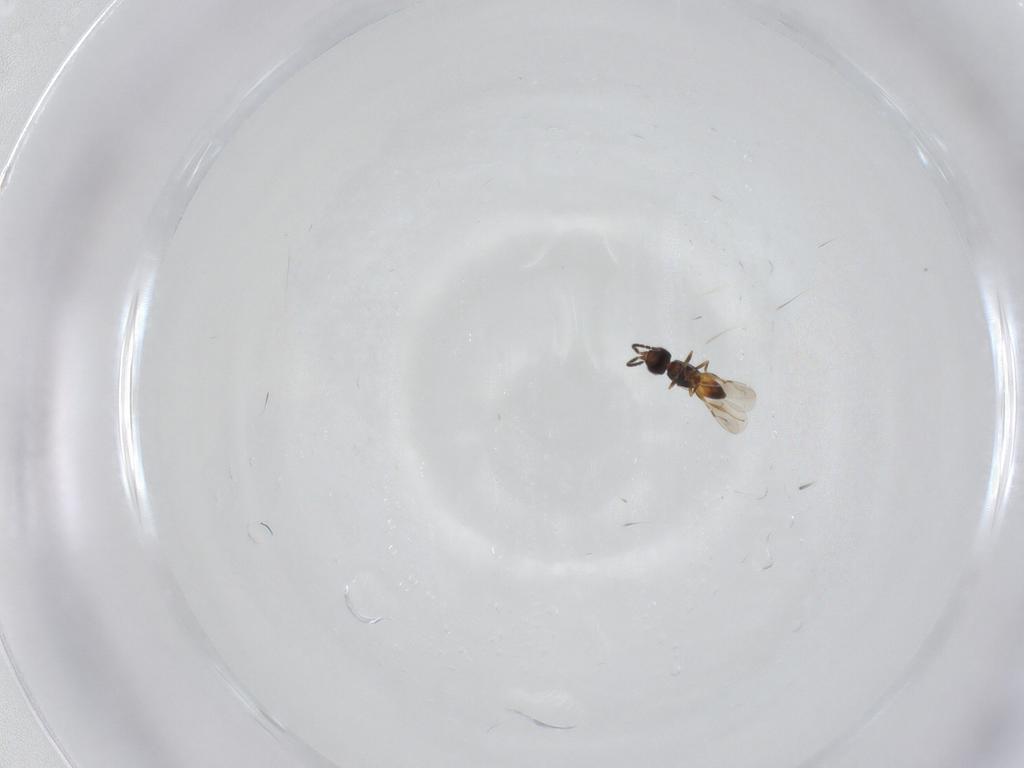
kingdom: Animalia
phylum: Arthropoda
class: Insecta
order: Hymenoptera
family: Ceraphronidae
